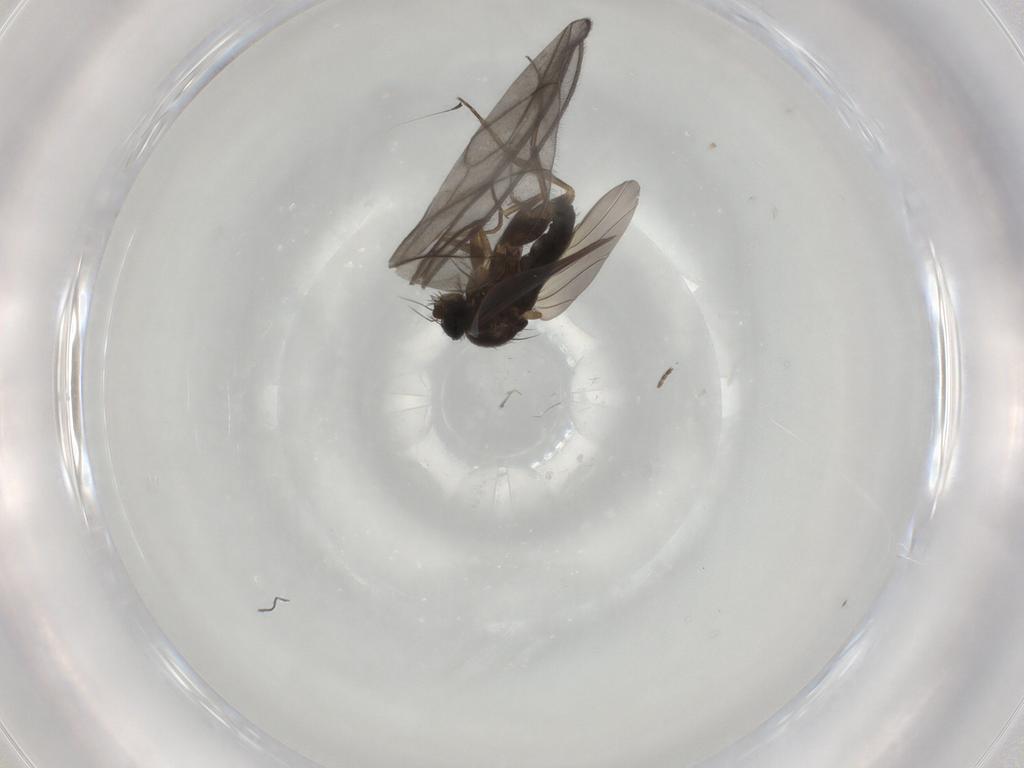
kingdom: Animalia
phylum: Arthropoda
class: Insecta
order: Diptera
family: Phoridae
